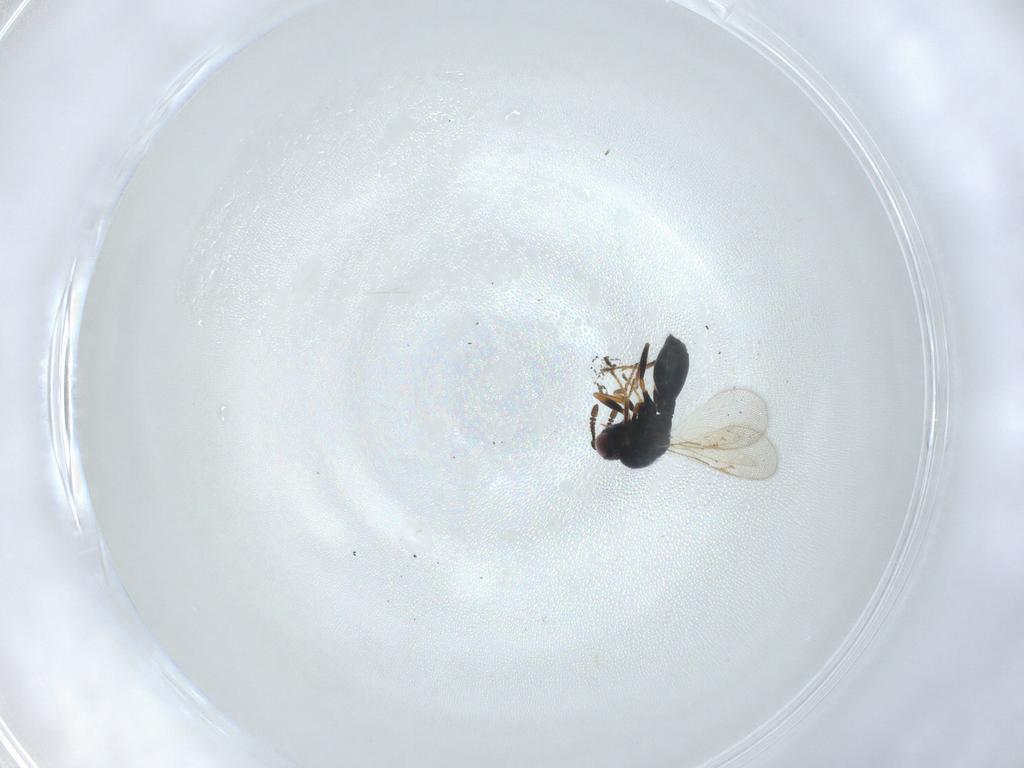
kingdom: Animalia
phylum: Arthropoda
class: Insecta
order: Hymenoptera
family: Chalcidoidea_incertae_sedis
